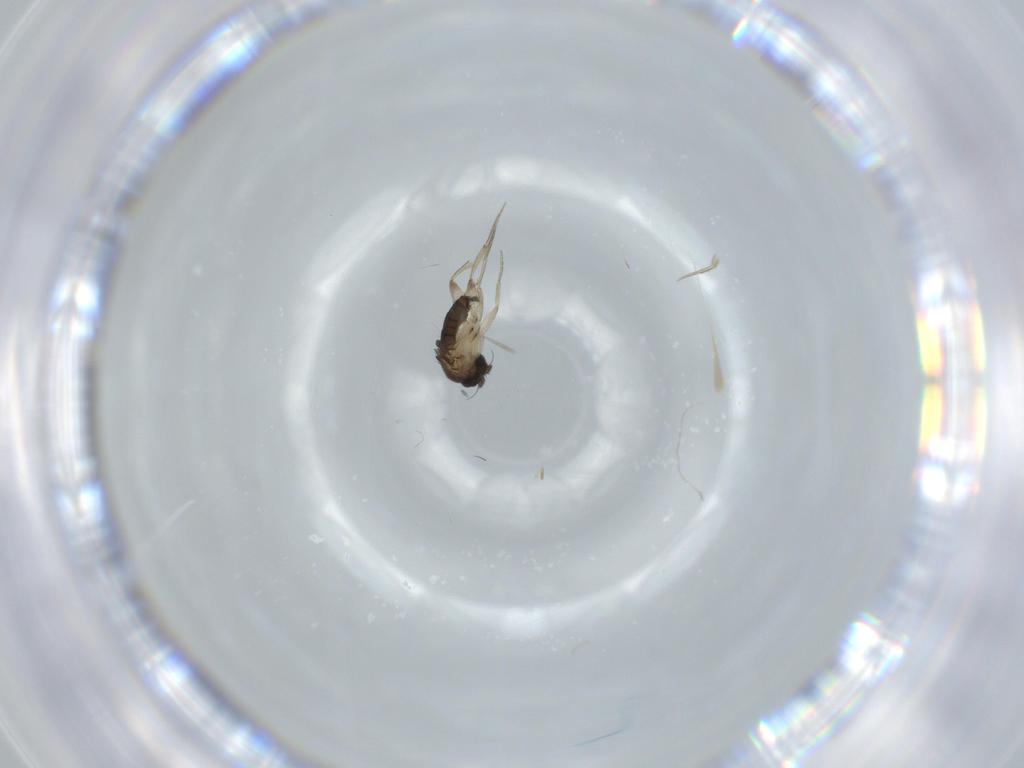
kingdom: Animalia
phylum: Arthropoda
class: Insecta
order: Diptera
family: Phoridae
